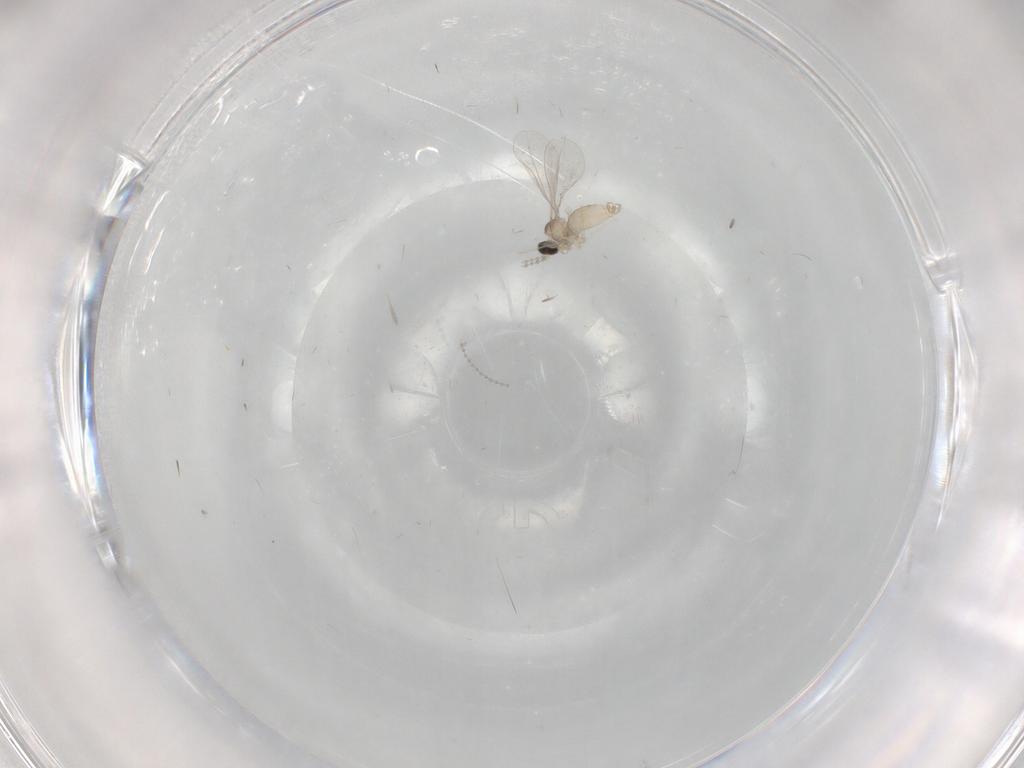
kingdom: Animalia
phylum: Arthropoda
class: Insecta
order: Diptera
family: Cecidomyiidae
